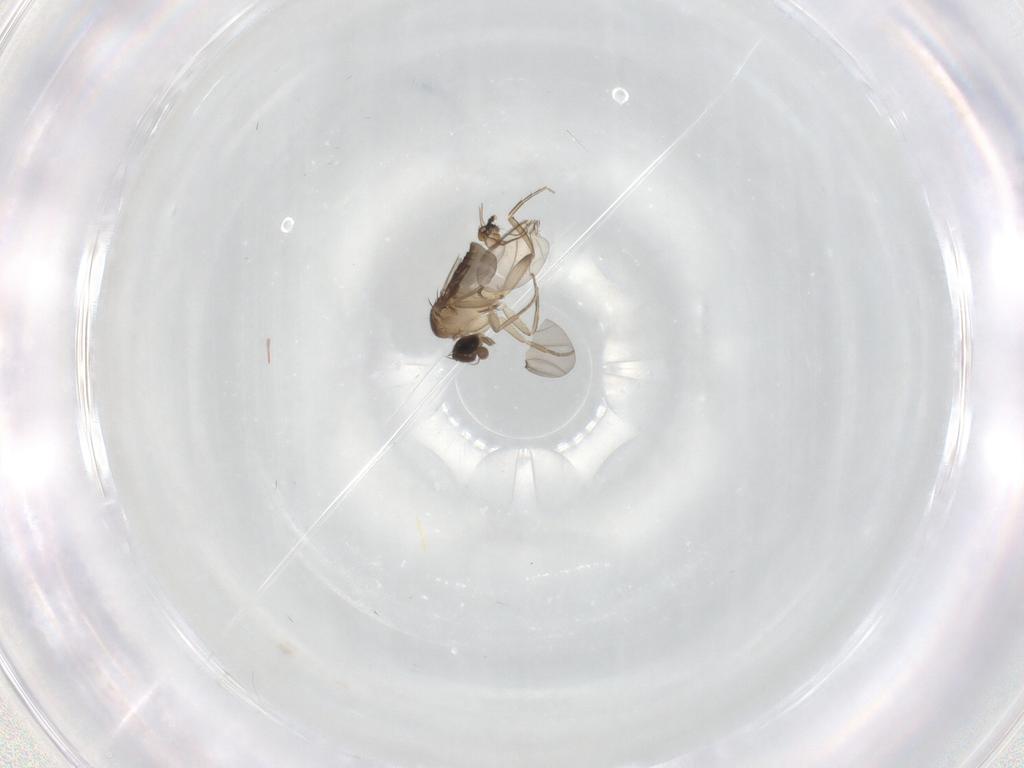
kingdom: Animalia
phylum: Arthropoda
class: Insecta
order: Diptera
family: Phoridae
